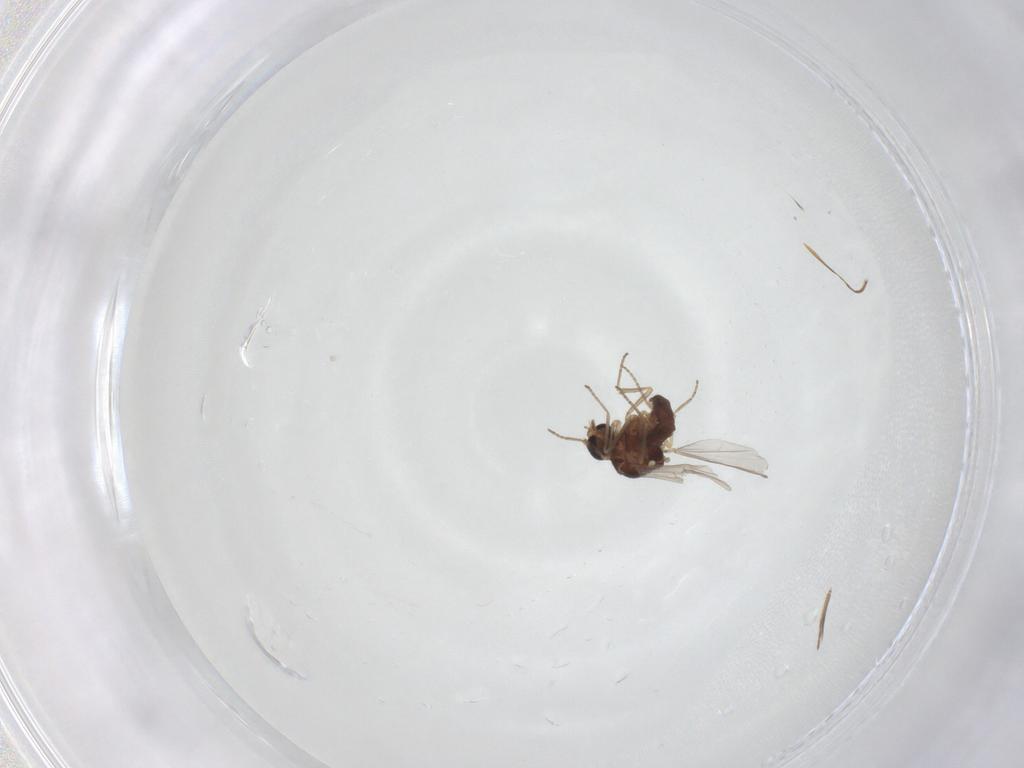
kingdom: Animalia
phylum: Arthropoda
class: Insecta
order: Diptera
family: Ceratopogonidae
